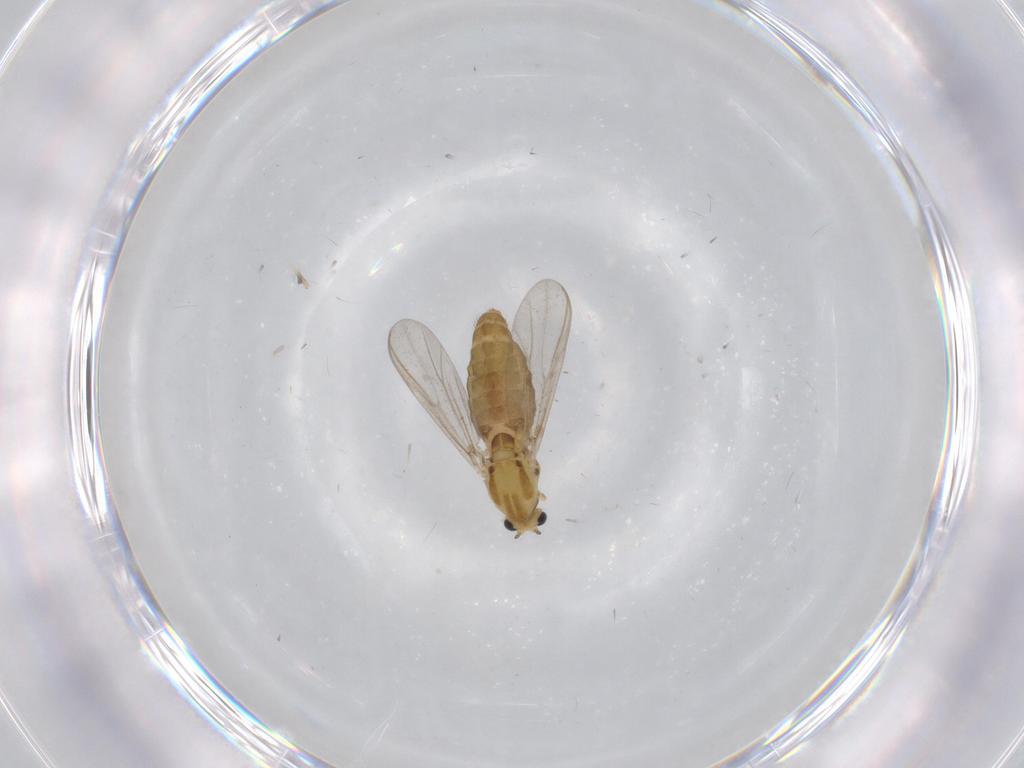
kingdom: Animalia
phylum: Arthropoda
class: Insecta
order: Diptera
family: Chironomidae
